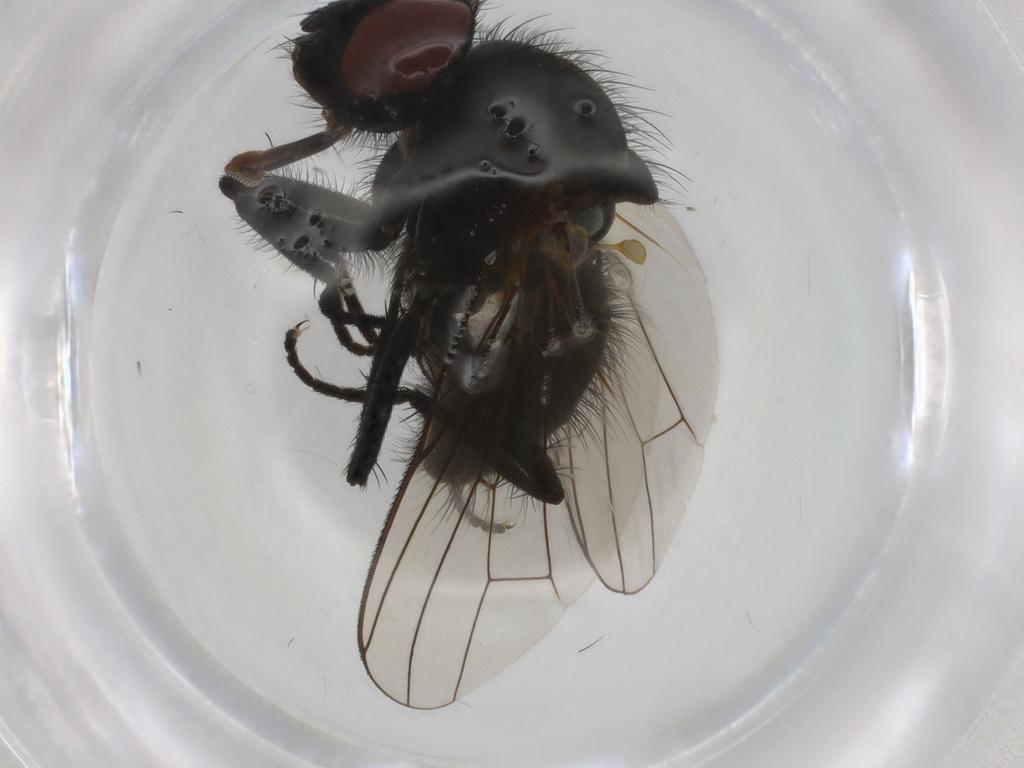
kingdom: Animalia
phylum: Arthropoda
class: Insecta
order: Diptera
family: Anthomyiidae
